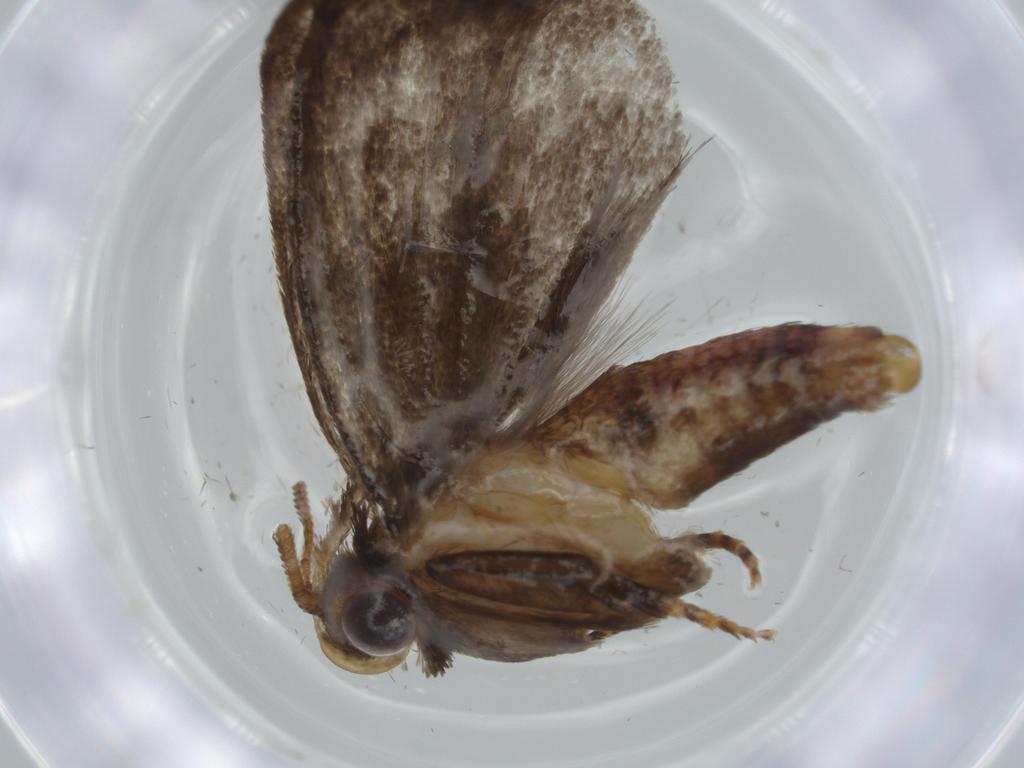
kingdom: Animalia
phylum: Arthropoda
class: Insecta
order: Lepidoptera
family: Tineidae
